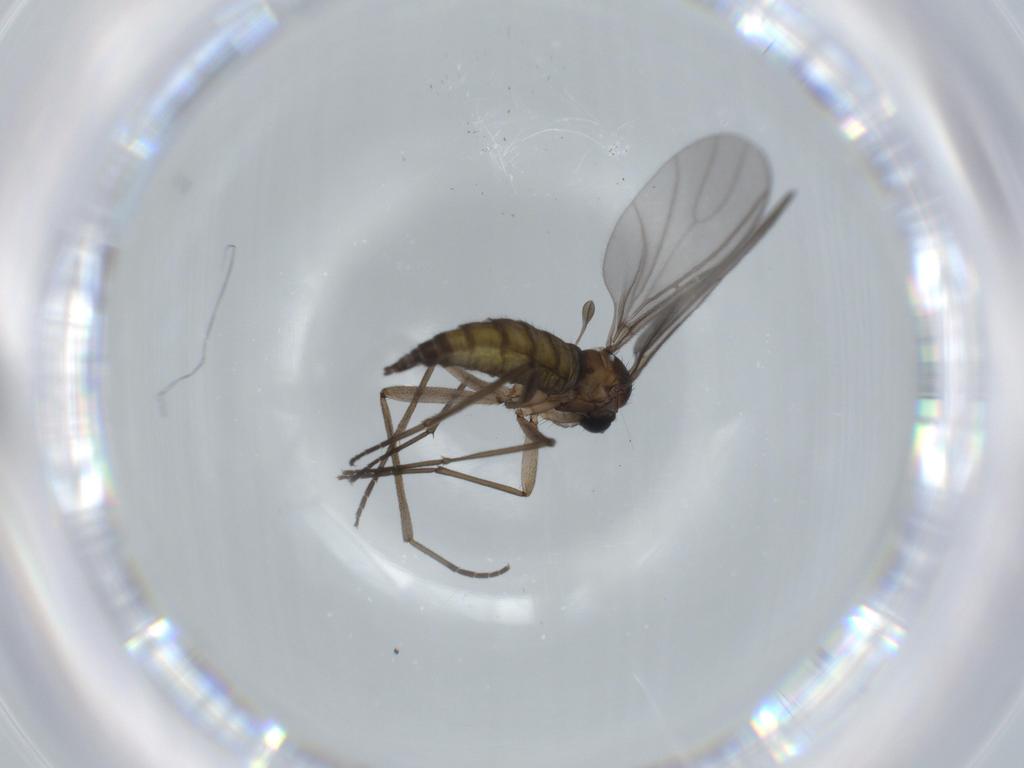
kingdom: Animalia
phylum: Arthropoda
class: Insecta
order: Diptera
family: Sciaridae
